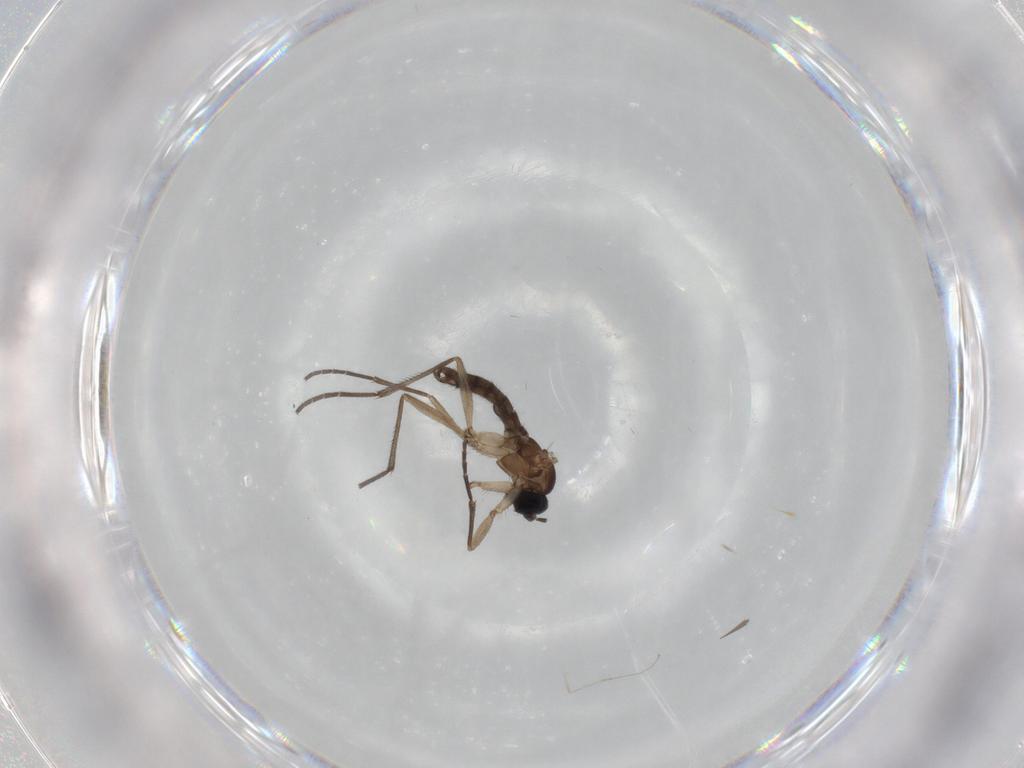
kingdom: Animalia
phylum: Arthropoda
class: Insecta
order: Diptera
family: Sciaridae
